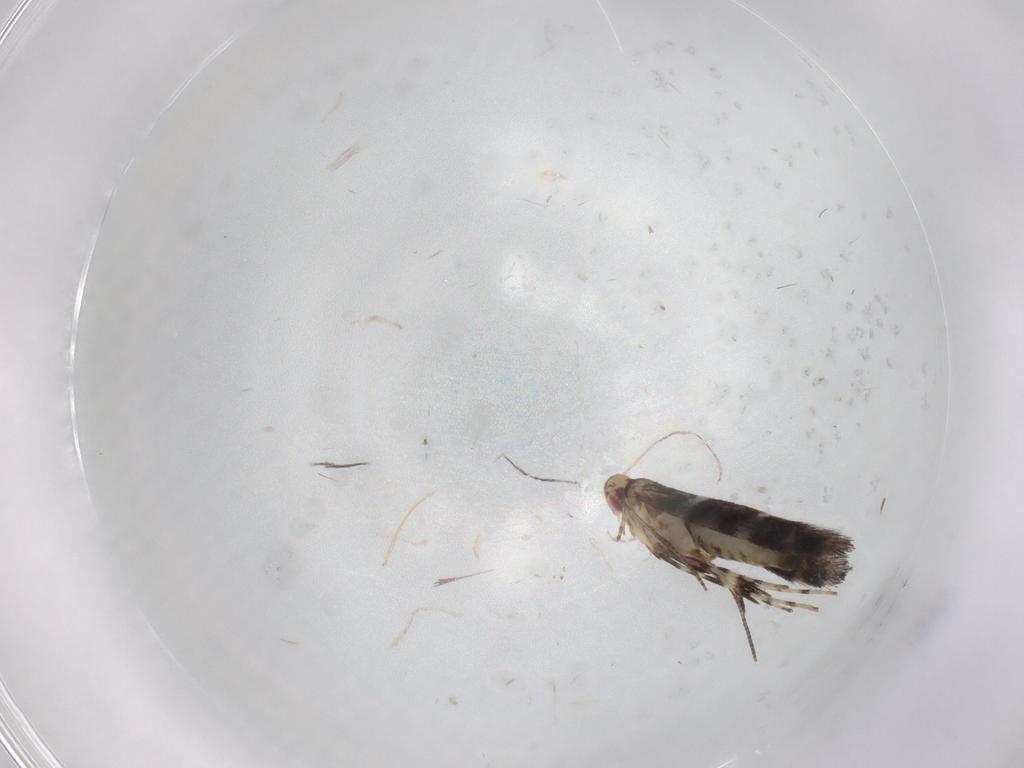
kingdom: Animalia
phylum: Arthropoda
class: Insecta
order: Lepidoptera
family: Gracillariidae
